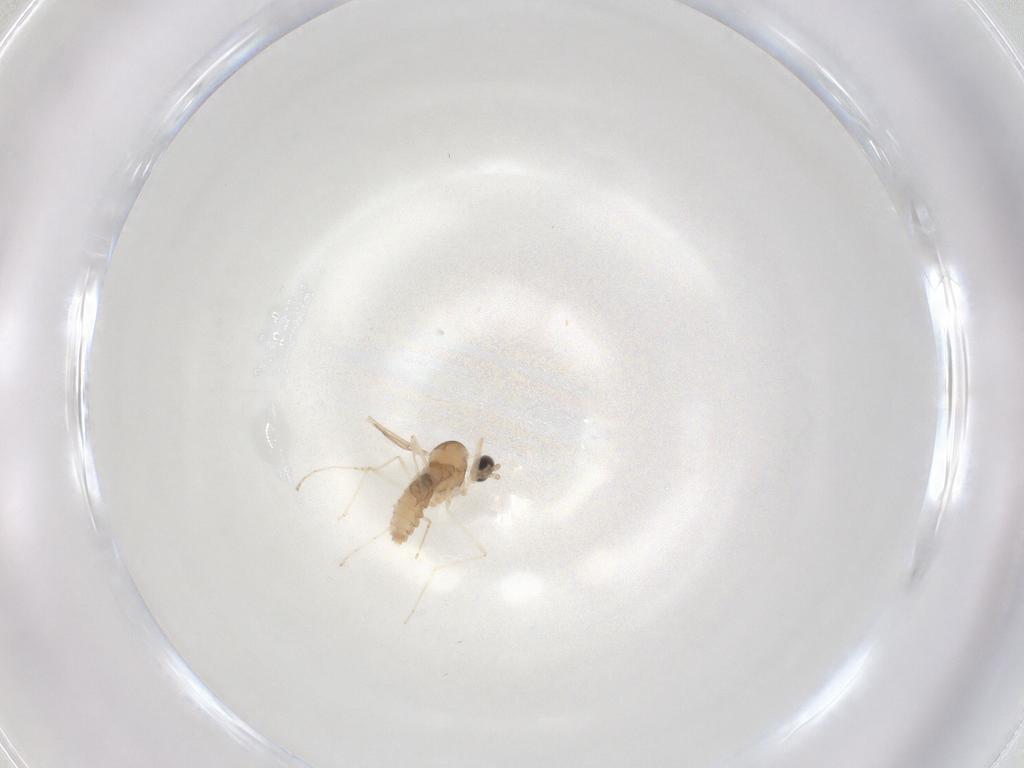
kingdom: Animalia
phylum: Arthropoda
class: Insecta
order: Diptera
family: Cecidomyiidae
